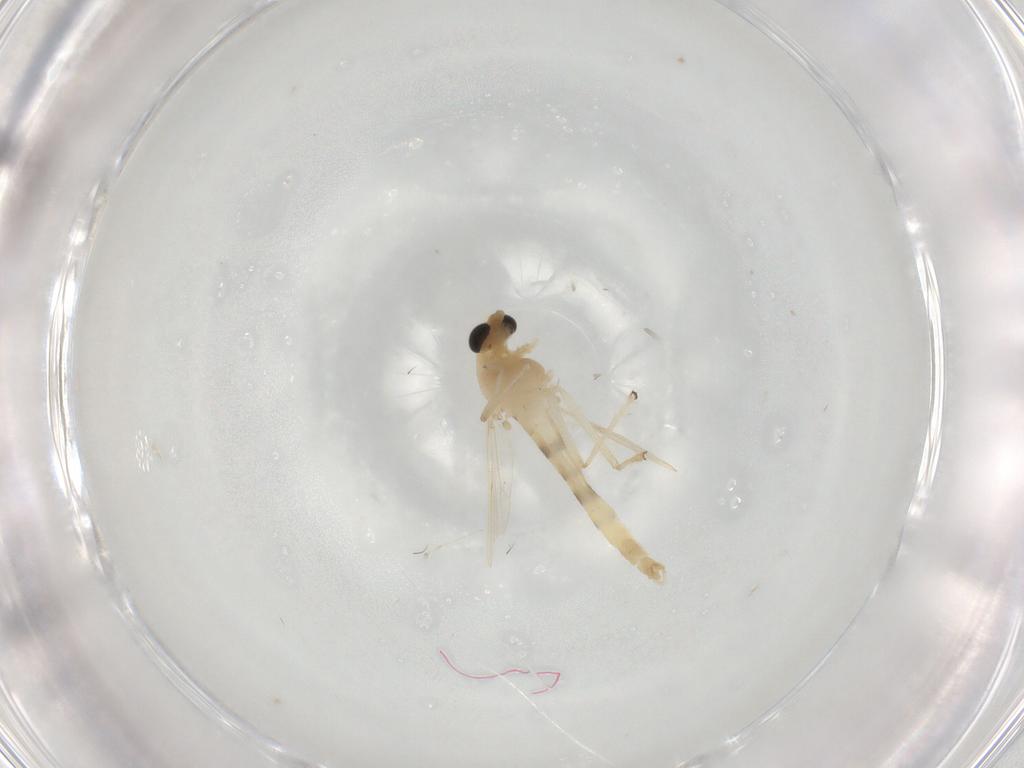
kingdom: Animalia
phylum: Arthropoda
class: Insecta
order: Diptera
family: Chironomidae
